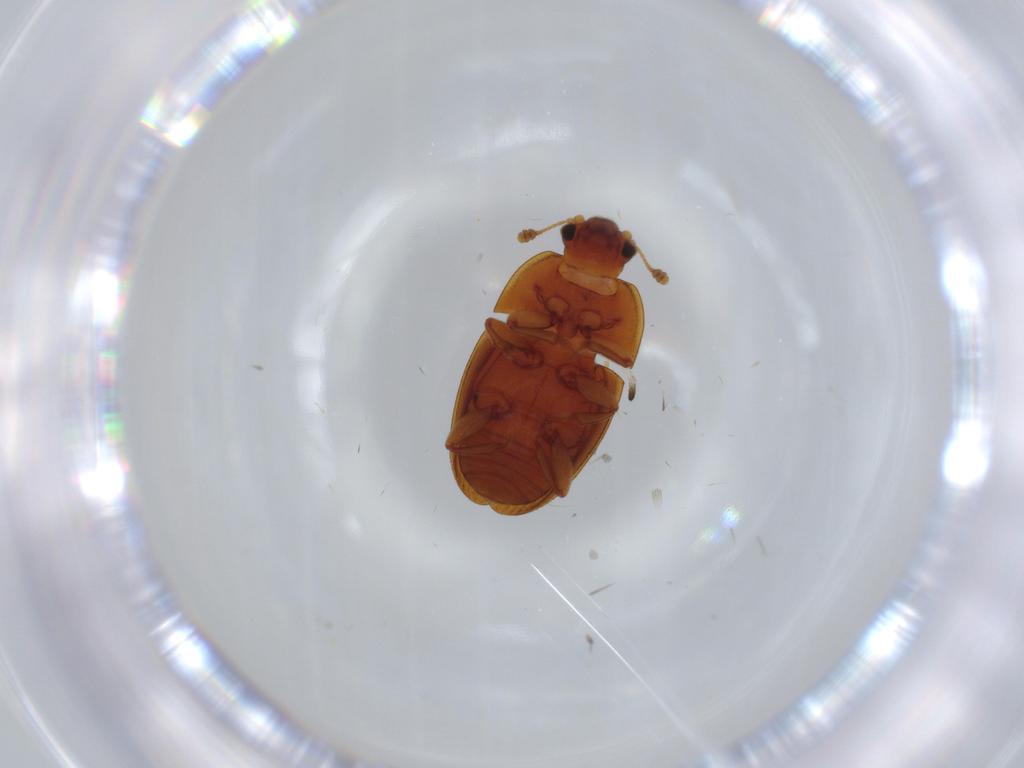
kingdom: Animalia
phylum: Arthropoda
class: Insecta
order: Coleoptera
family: Scraptiidae
